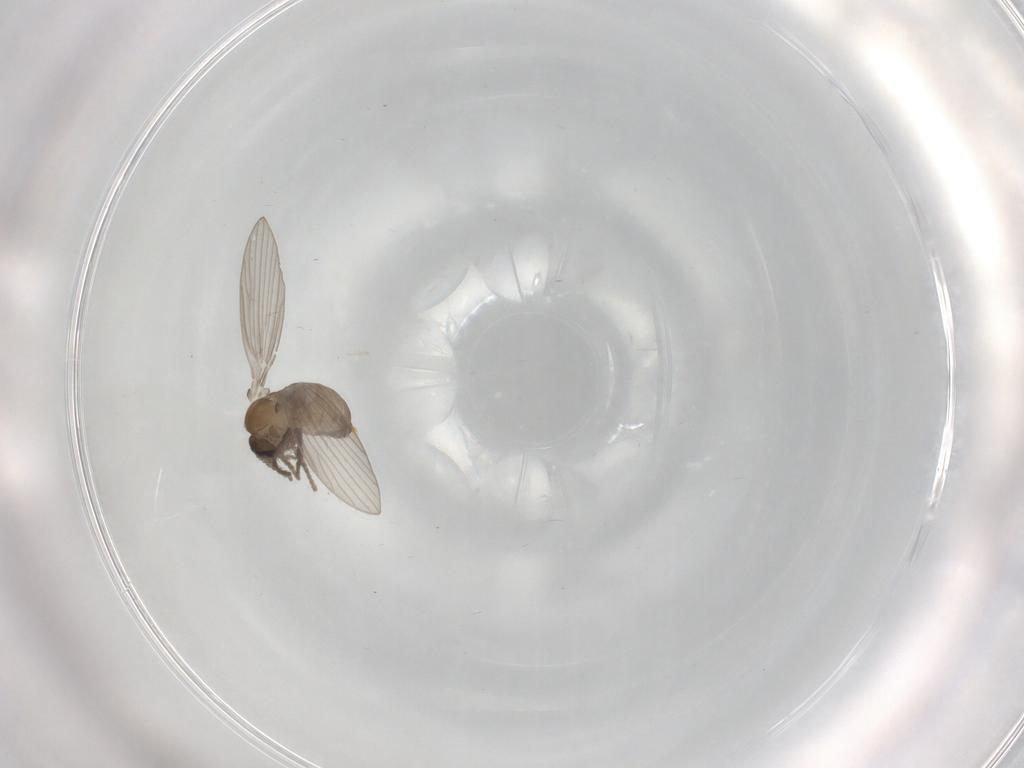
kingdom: Animalia
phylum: Arthropoda
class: Insecta
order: Diptera
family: Psychodidae
